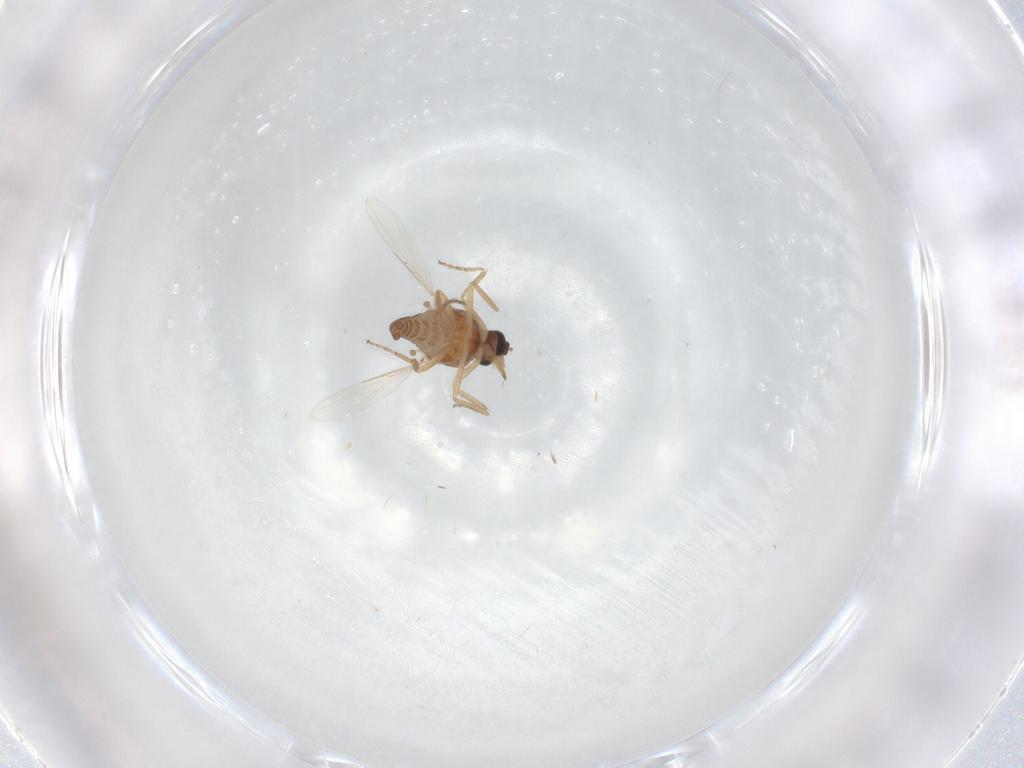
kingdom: Animalia
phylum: Arthropoda
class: Insecta
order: Diptera
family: Ceratopogonidae
